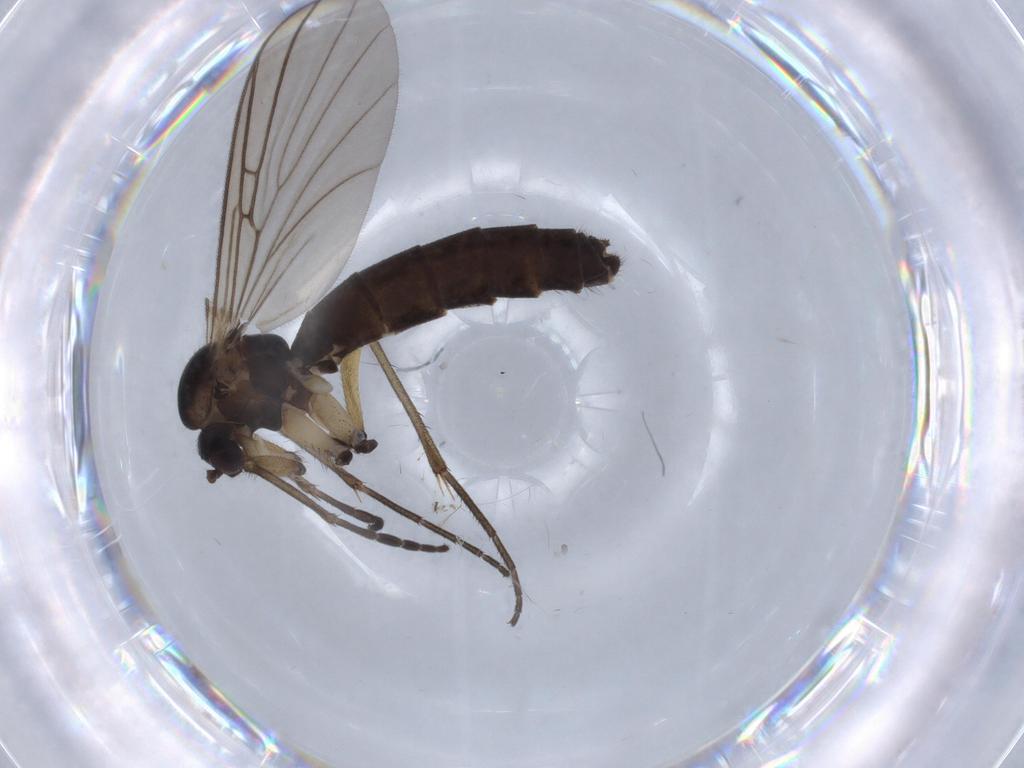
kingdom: Animalia
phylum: Arthropoda
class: Insecta
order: Diptera
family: Mycetophilidae
